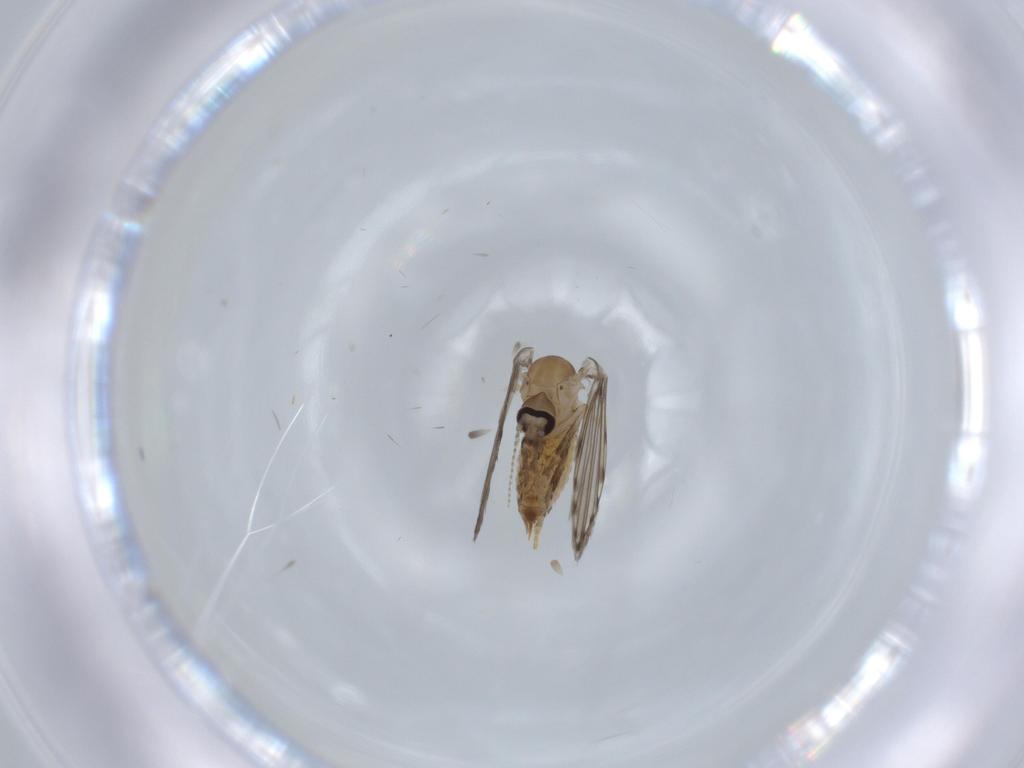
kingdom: Animalia
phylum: Arthropoda
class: Insecta
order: Diptera
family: Psychodidae
